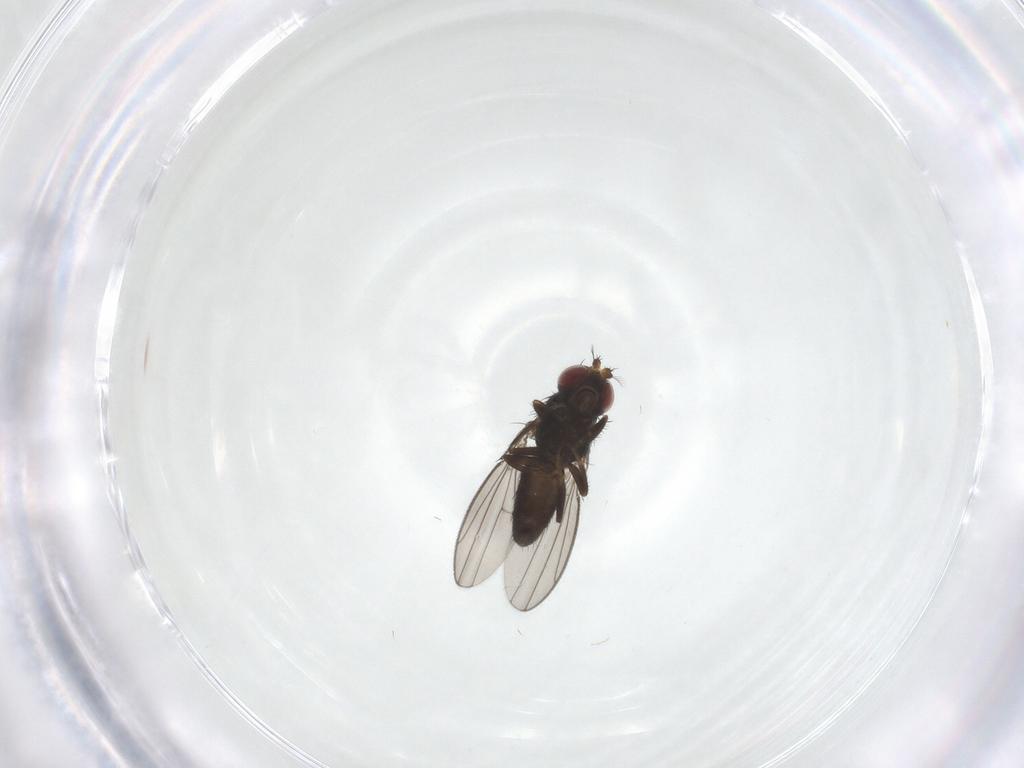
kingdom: Animalia
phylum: Arthropoda
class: Insecta
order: Diptera
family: Ephydridae
